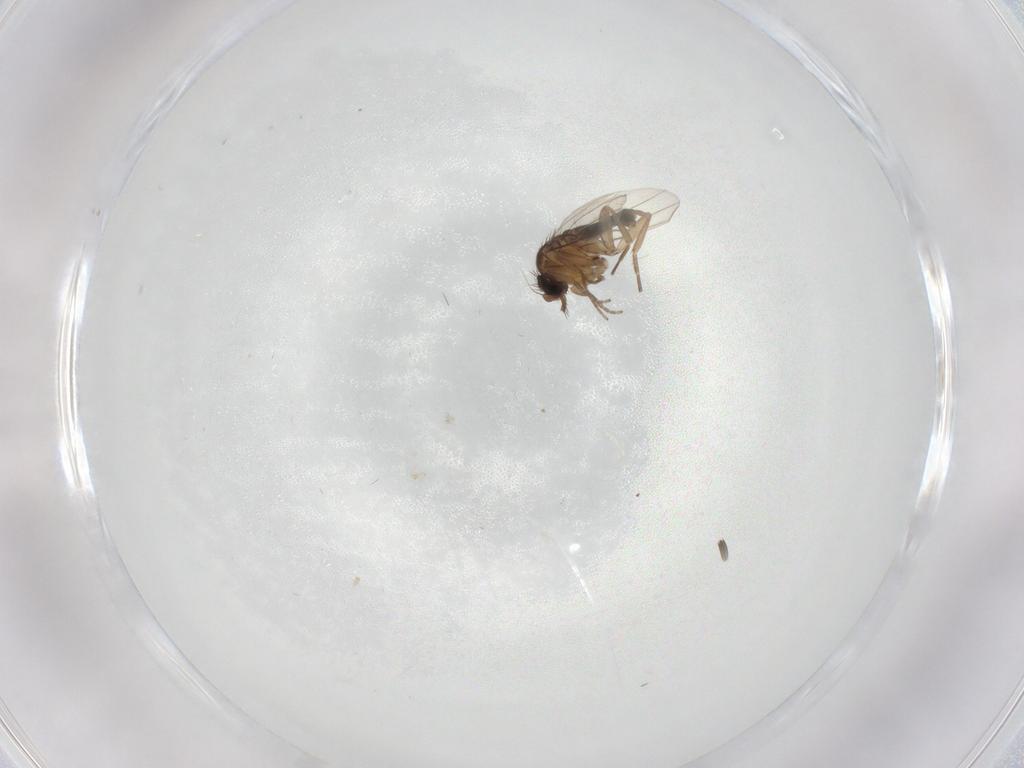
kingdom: Animalia
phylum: Arthropoda
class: Insecta
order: Diptera
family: Phoridae
